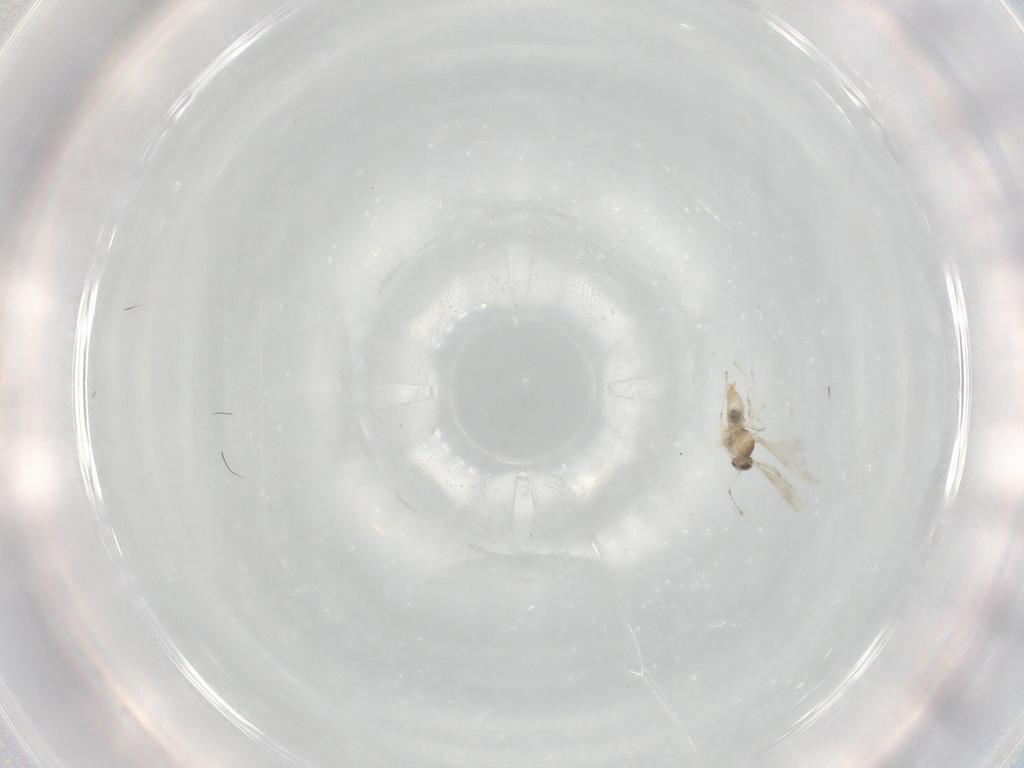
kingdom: Animalia
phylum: Arthropoda
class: Insecta
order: Diptera
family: Cecidomyiidae
